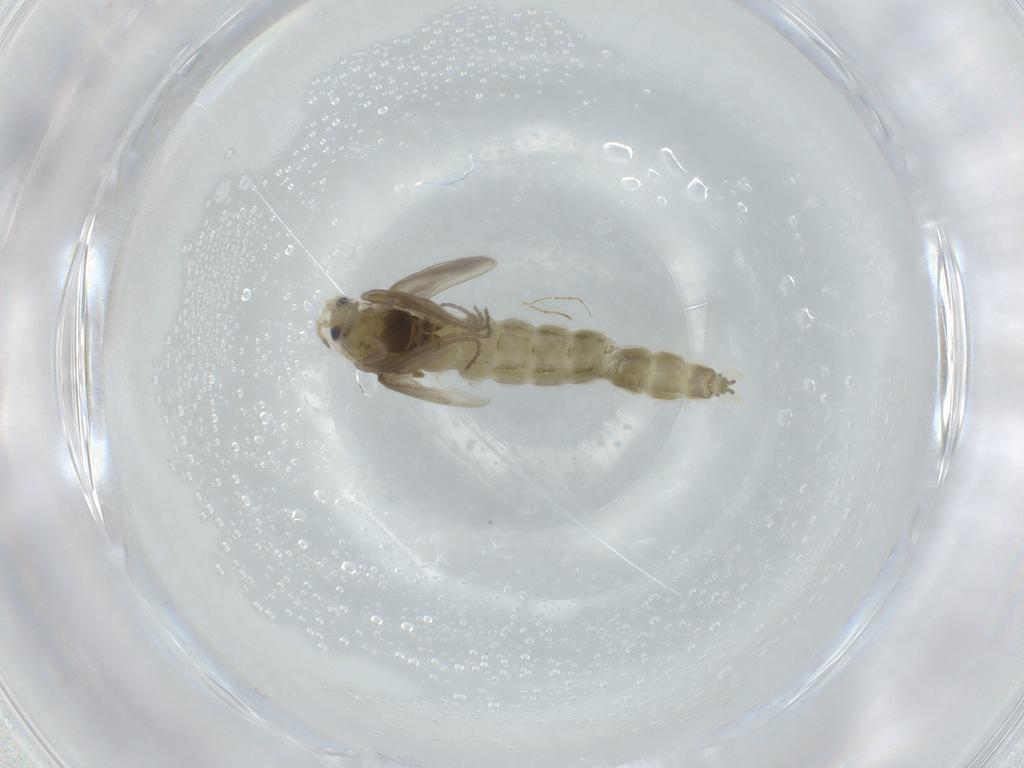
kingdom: Animalia
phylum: Arthropoda
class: Insecta
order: Diptera
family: Chironomidae
